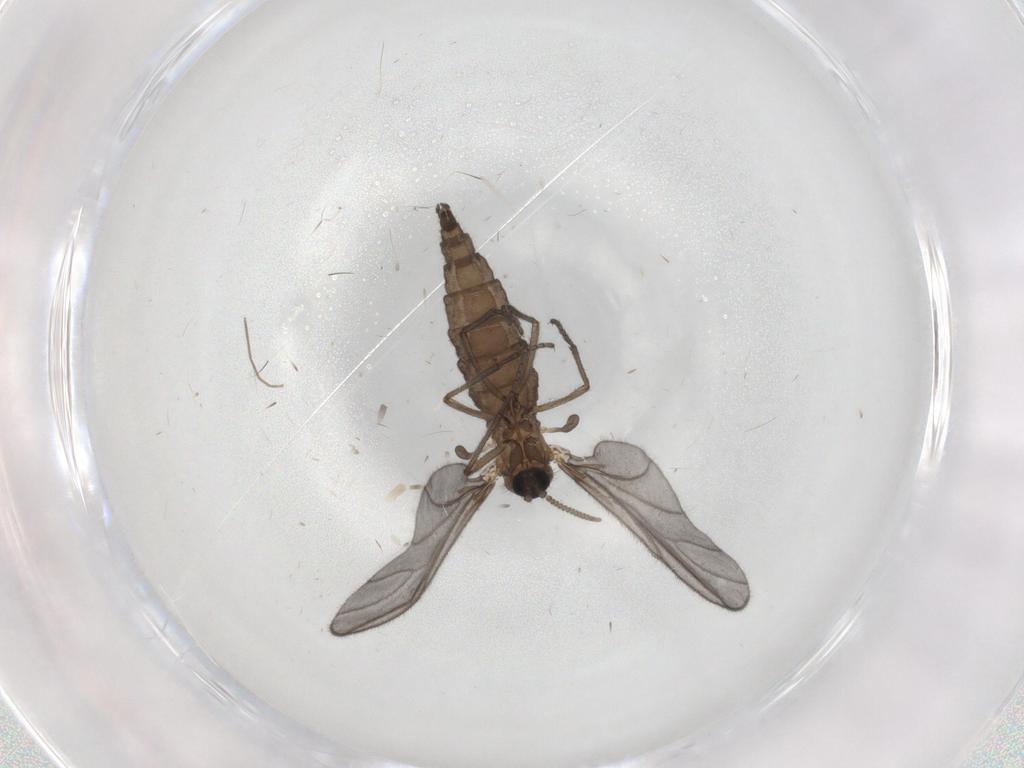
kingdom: Animalia
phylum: Arthropoda
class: Insecta
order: Diptera
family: Sciaridae
